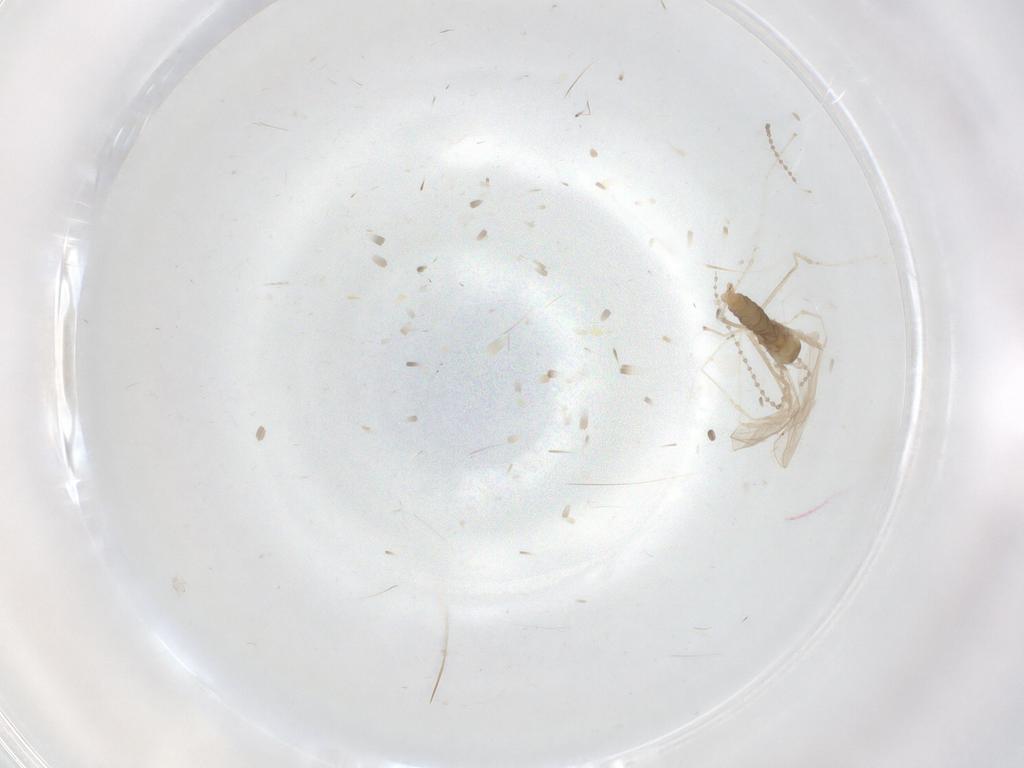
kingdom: Animalia
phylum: Arthropoda
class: Insecta
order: Diptera
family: Cecidomyiidae
